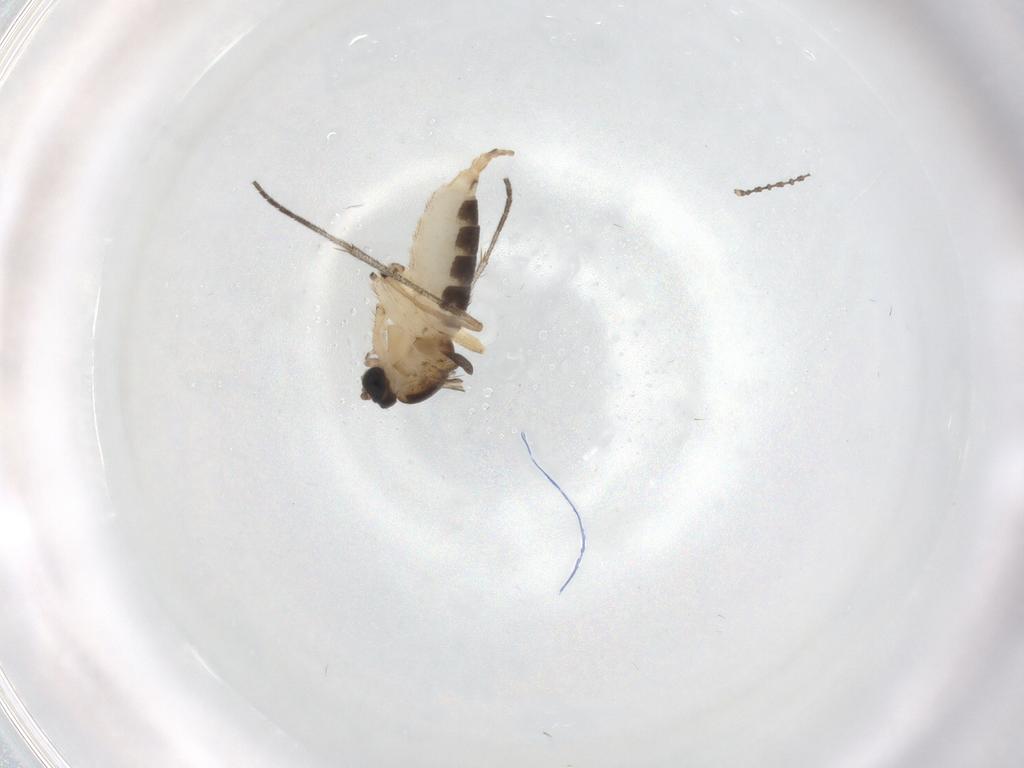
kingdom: Animalia
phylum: Arthropoda
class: Insecta
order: Diptera
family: Sciaridae
